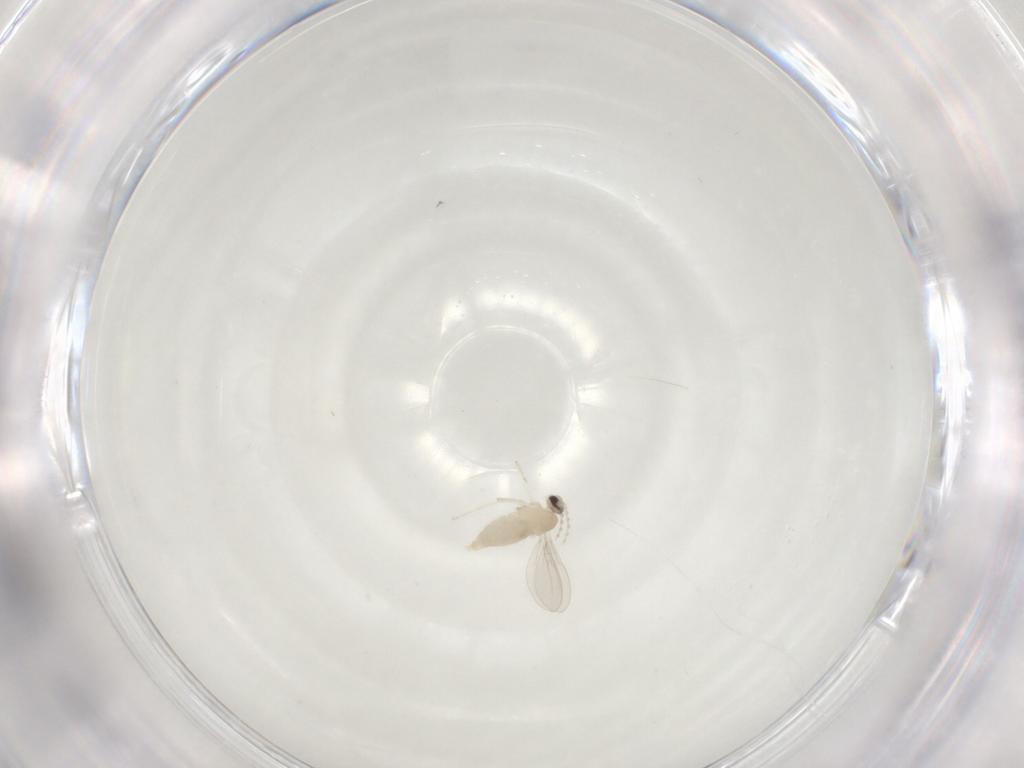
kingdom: Animalia
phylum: Arthropoda
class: Insecta
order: Diptera
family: Cecidomyiidae
